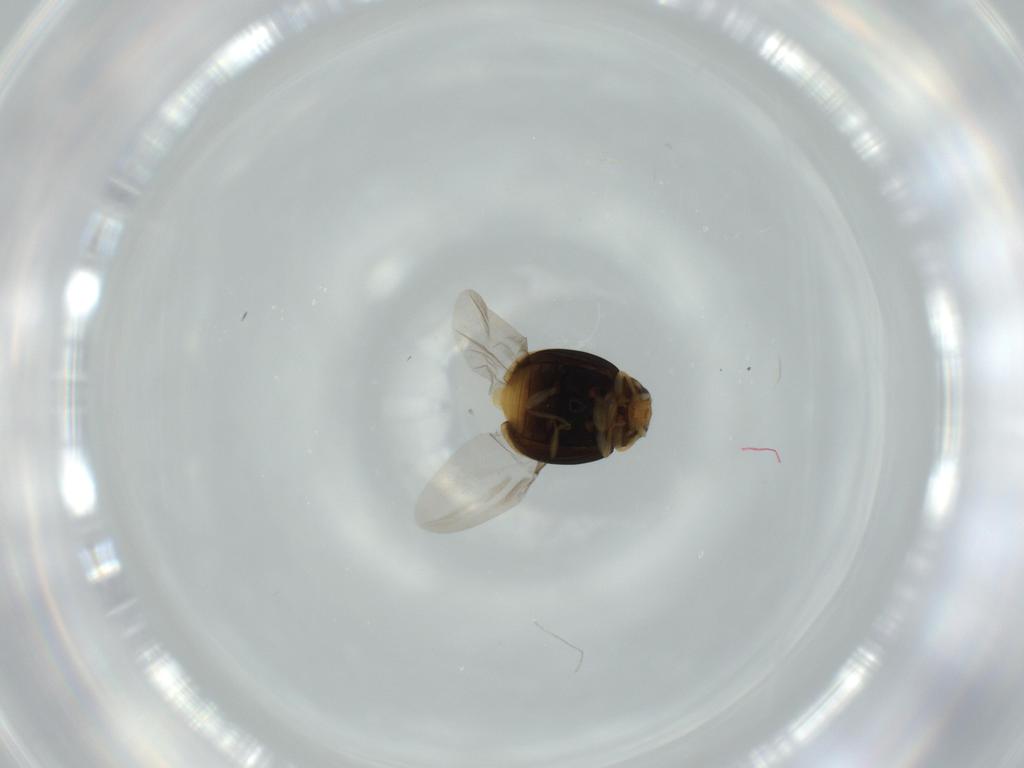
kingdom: Animalia
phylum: Arthropoda
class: Insecta
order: Coleoptera
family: Coccinellidae
